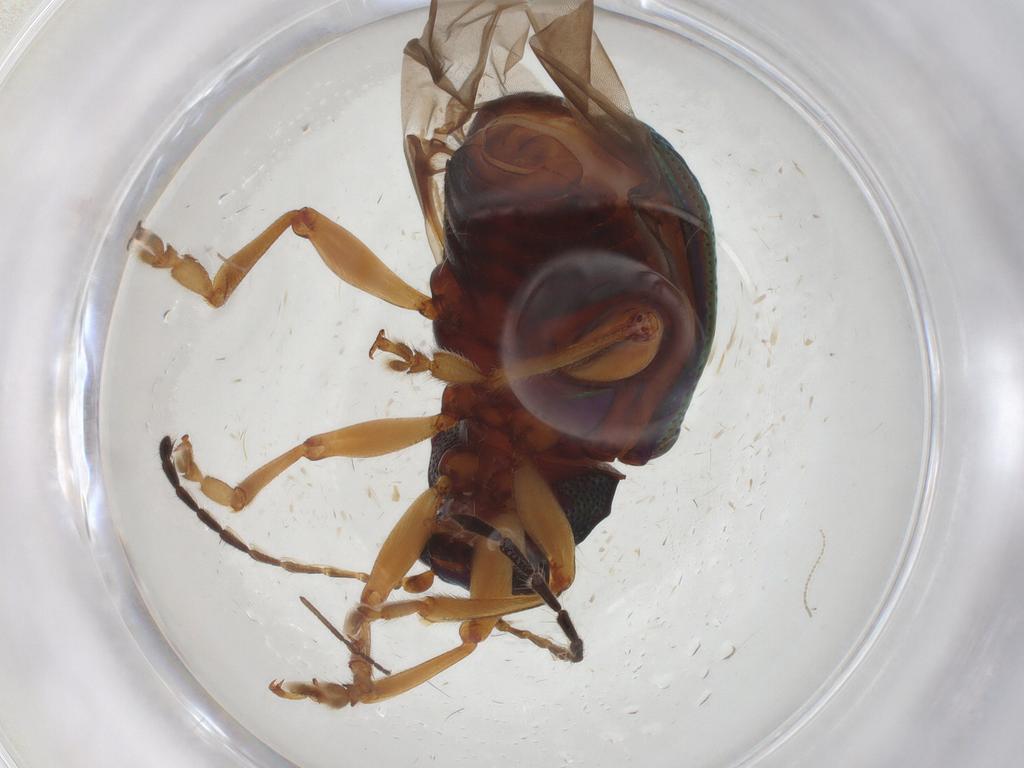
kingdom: Animalia
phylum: Arthropoda
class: Insecta
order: Coleoptera
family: Chrysomelidae
